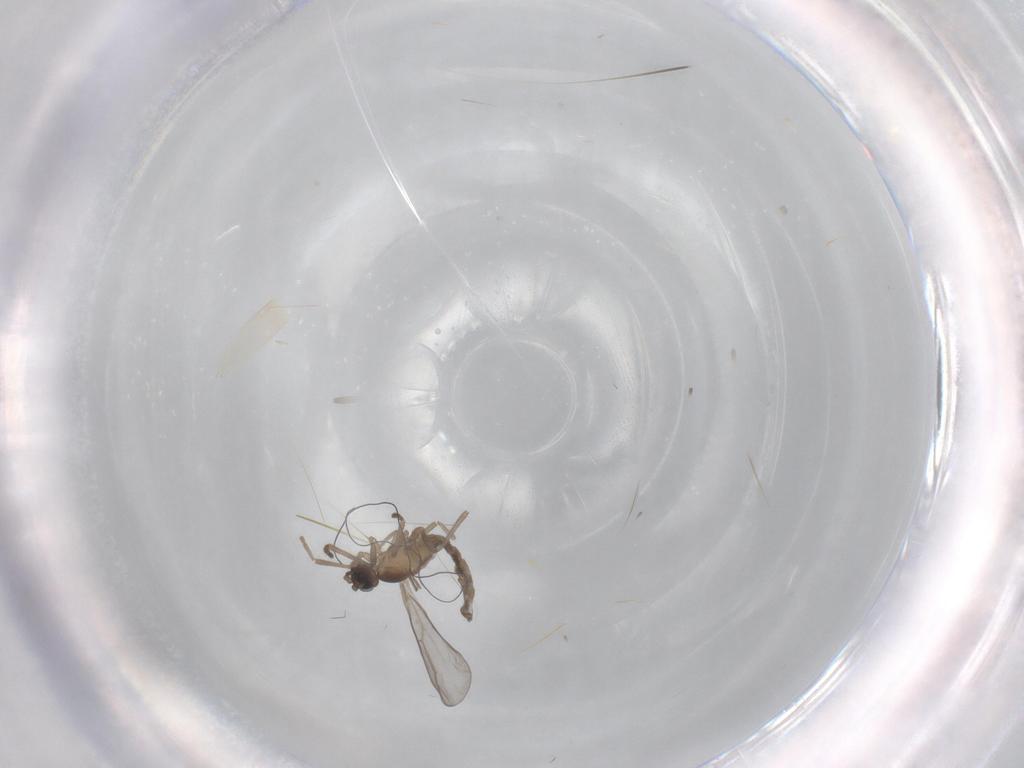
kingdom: Animalia
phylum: Arthropoda
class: Insecta
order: Diptera
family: Cecidomyiidae
